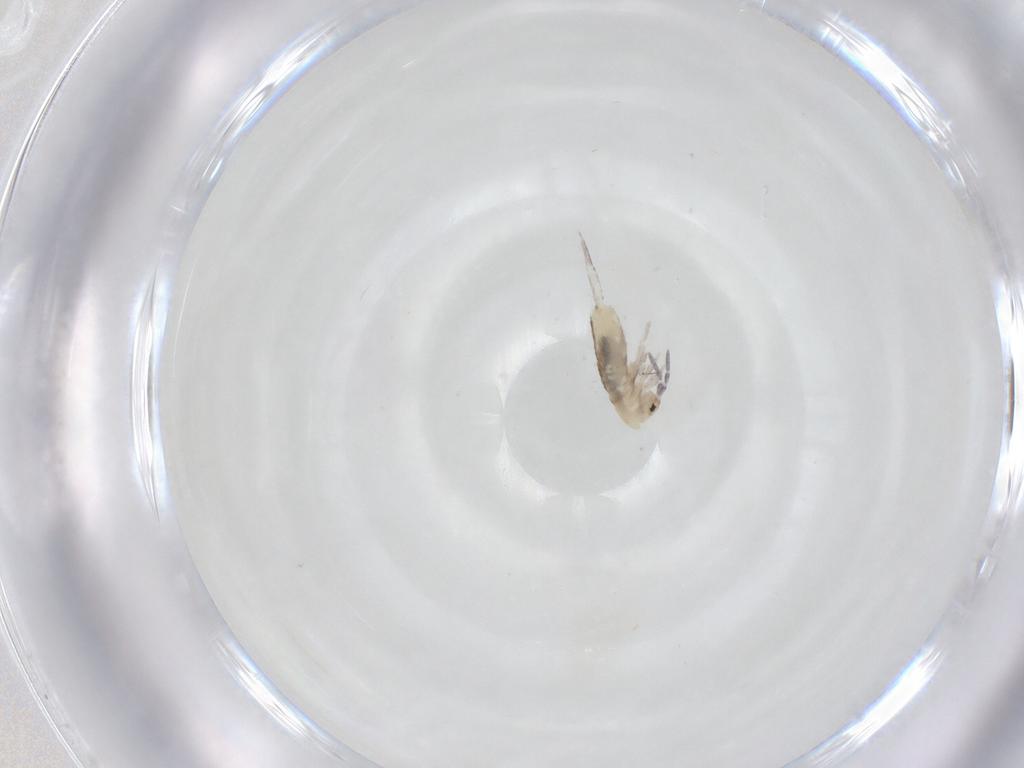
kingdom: Animalia
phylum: Arthropoda
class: Collembola
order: Entomobryomorpha
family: Entomobryidae
